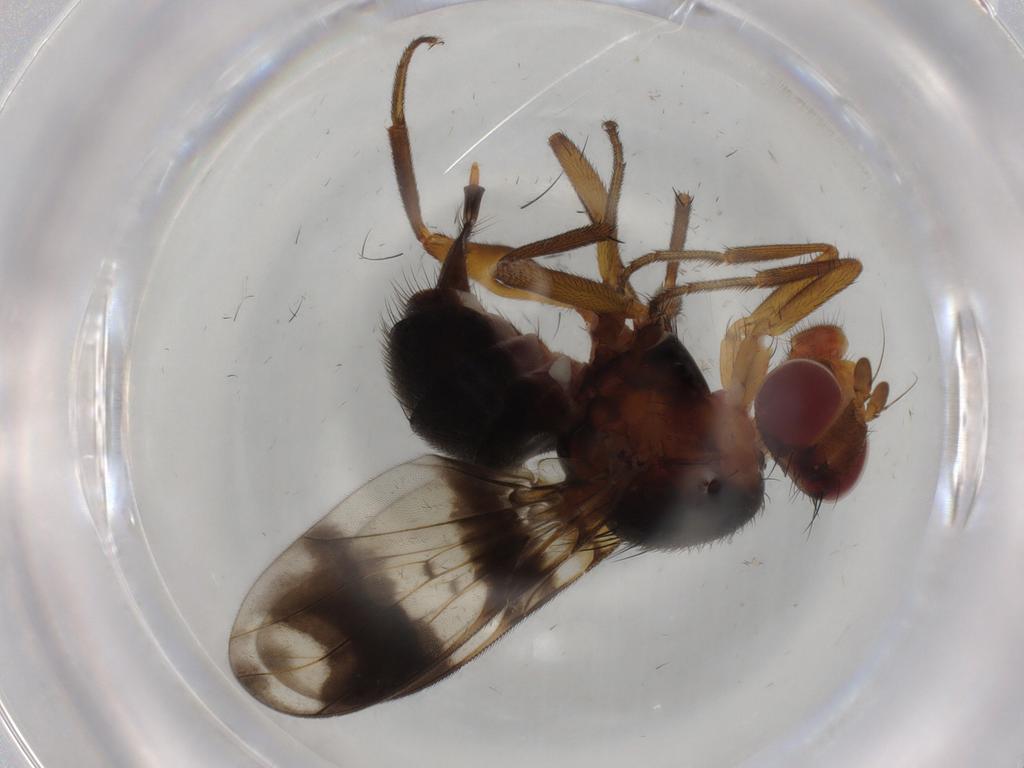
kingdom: Animalia
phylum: Arthropoda
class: Insecta
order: Diptera
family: Richardiidae
